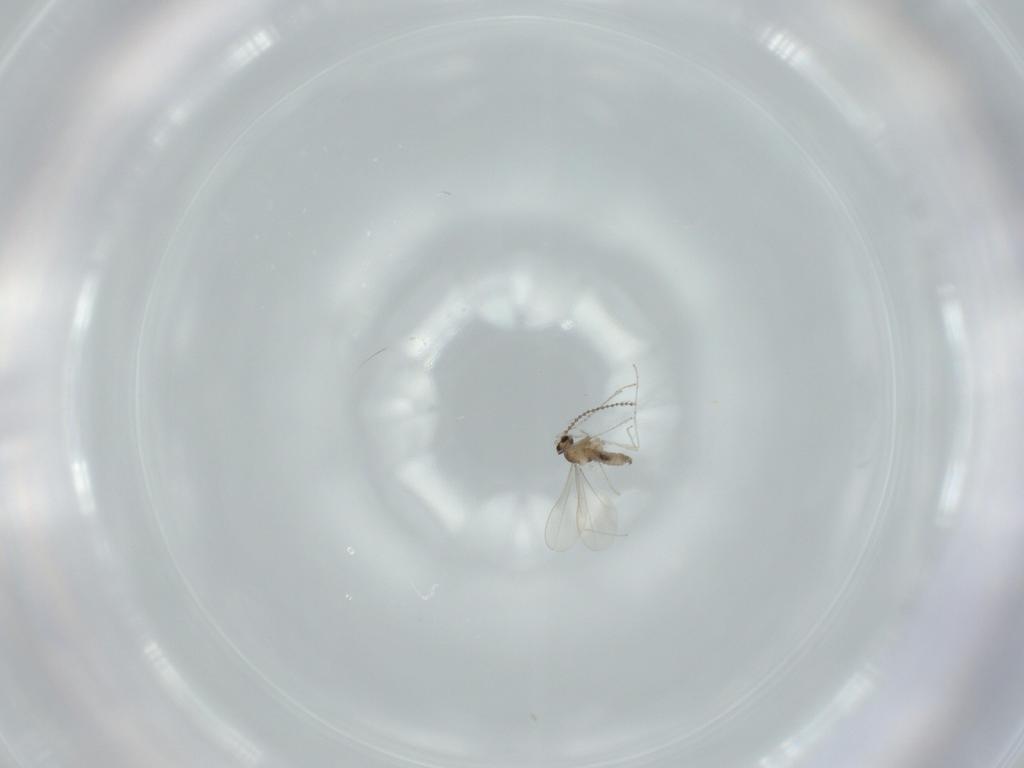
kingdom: Animalia
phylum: Arthropoda
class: Insecta
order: Diptera
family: Cecidomyiidae
